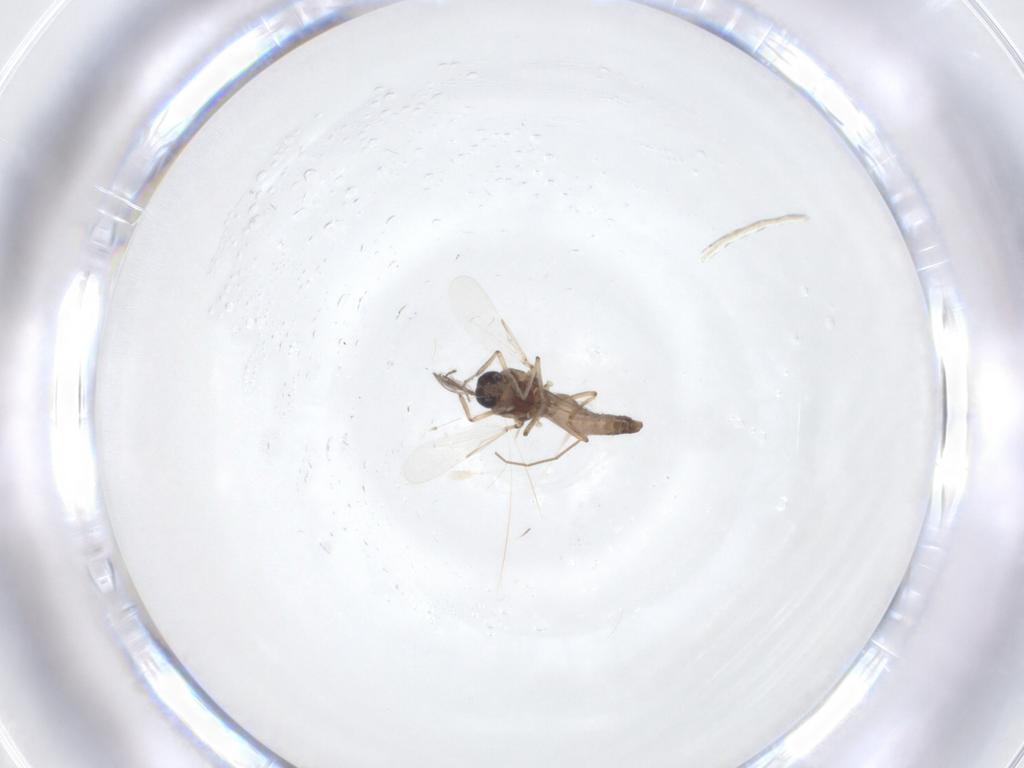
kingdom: Animalia
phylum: Arthropoda
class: Insecta
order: Diptera
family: Ceratopogonidae
